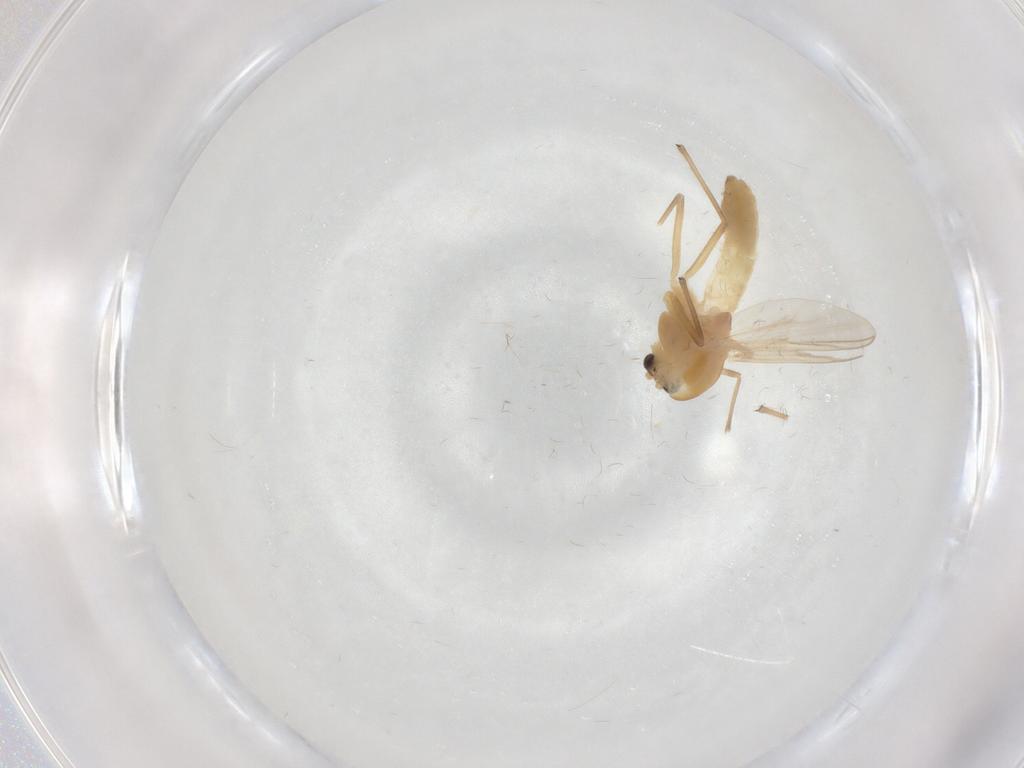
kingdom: Animalia
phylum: Arthropoda
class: Insecta
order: Diptera
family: Chironomidae
